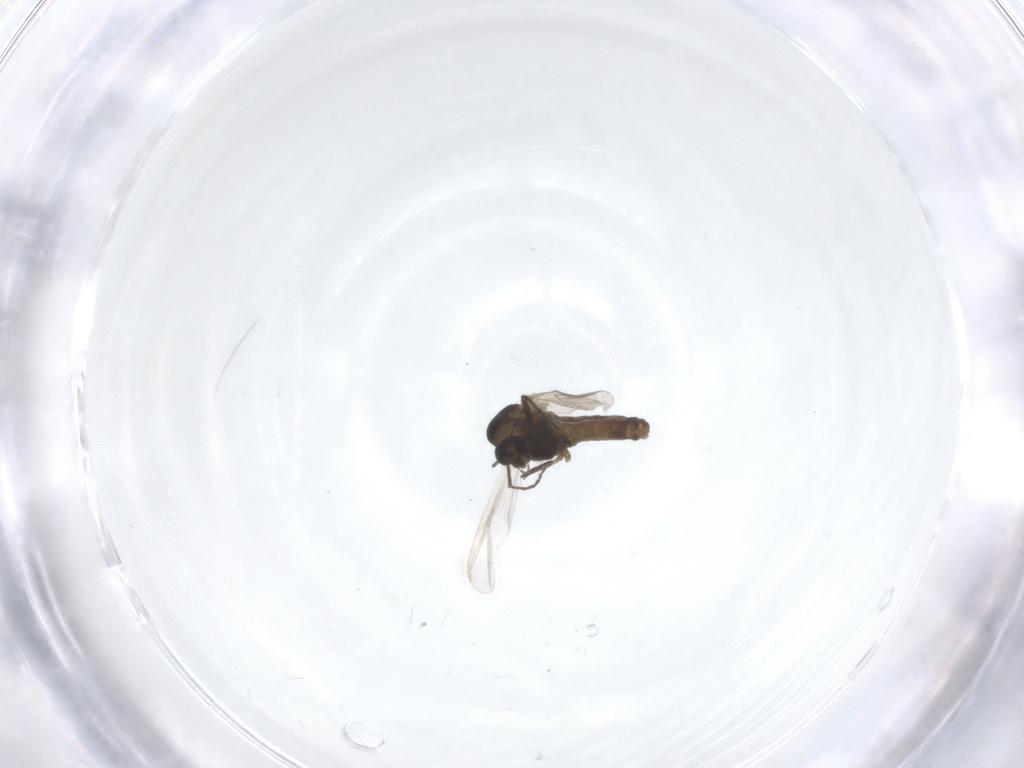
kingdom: Animalia
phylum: Arthropoda
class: Insecta
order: Diptera
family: Chironomidae
